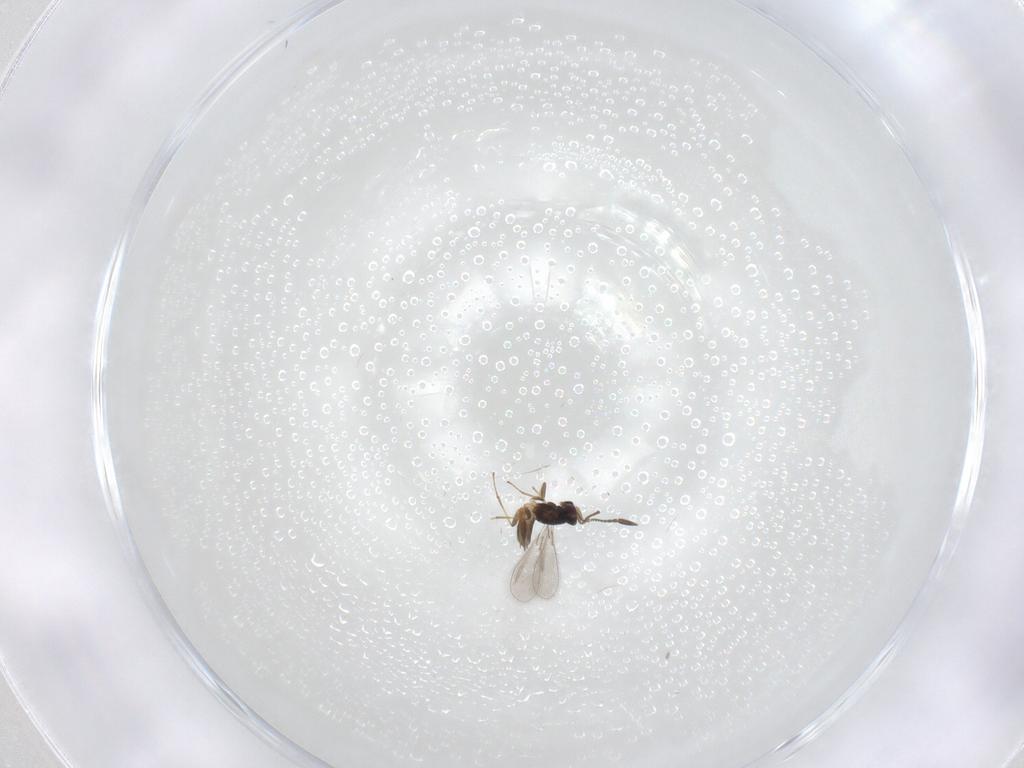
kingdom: Animalia
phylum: Arthropoda
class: Insecta
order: Hymenoptera
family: Mymaridae
